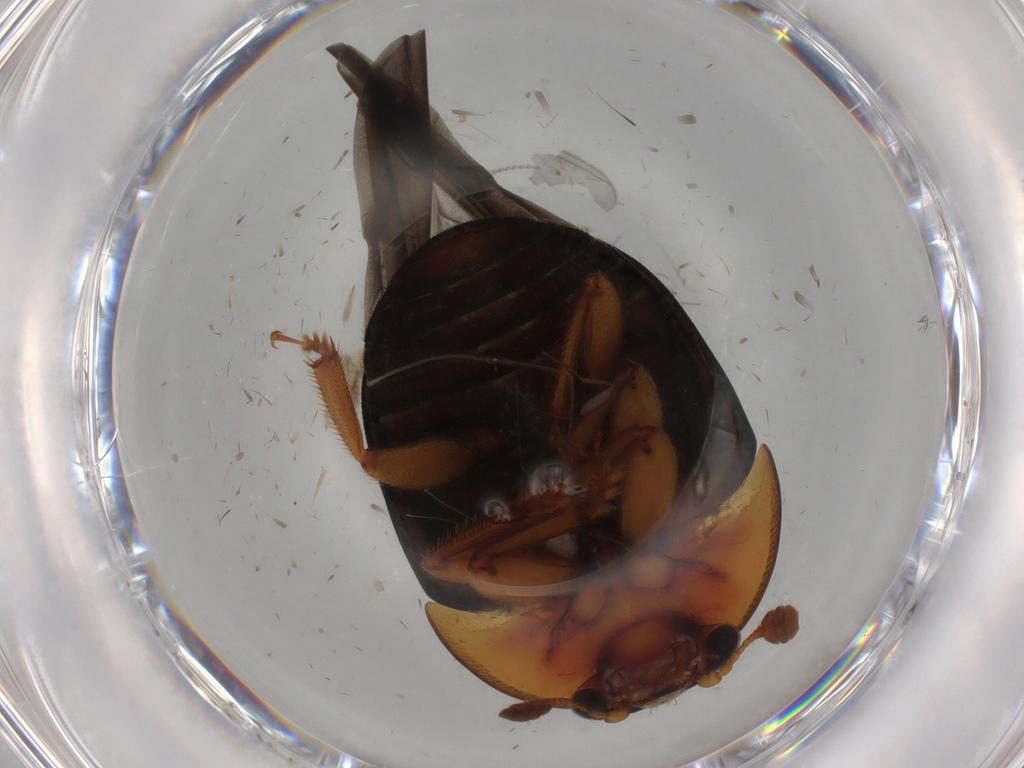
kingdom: Animalia
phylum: Arthropoda
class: Insecta
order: Coleoptera
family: Nitidulidae
